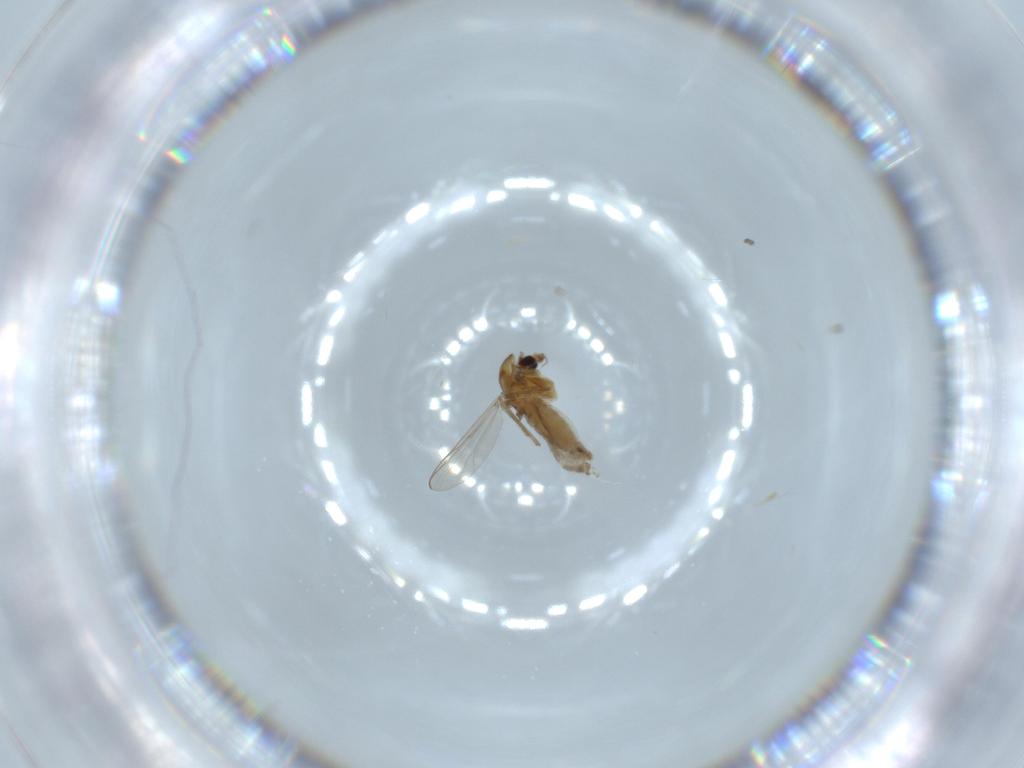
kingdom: Animalia
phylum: Arthropoda
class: Insecta
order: Diptera
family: Chironomidae
